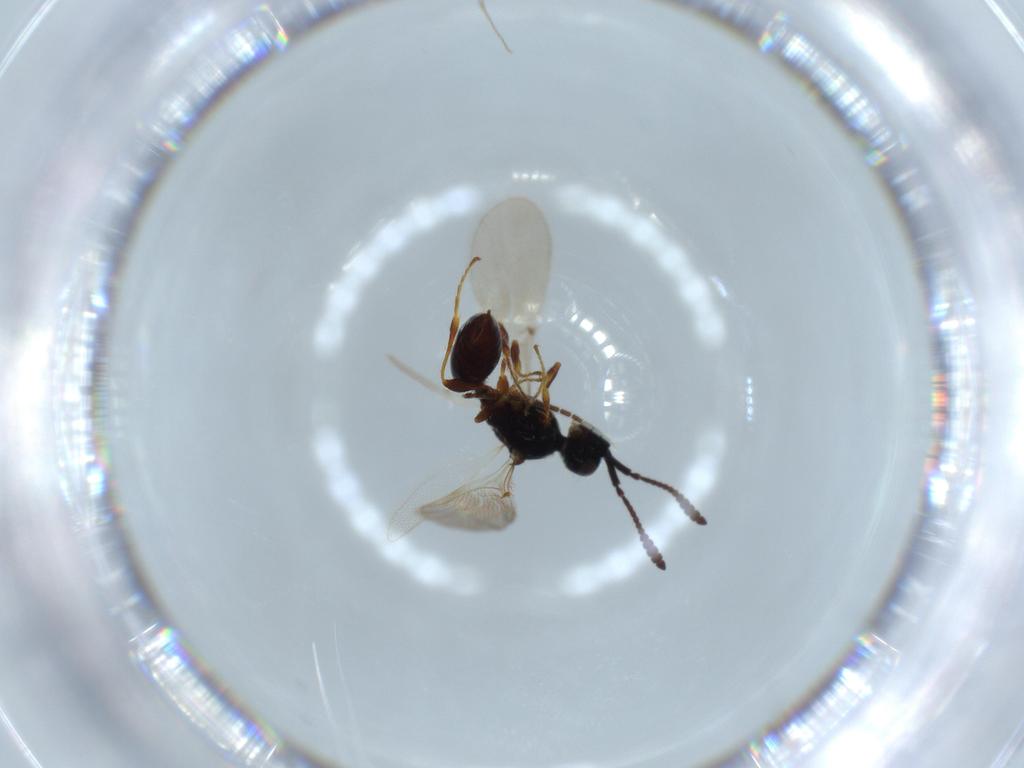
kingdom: Animalia
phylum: Arthropoda
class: Insecta
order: Hymenoptera
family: Diapriidae
